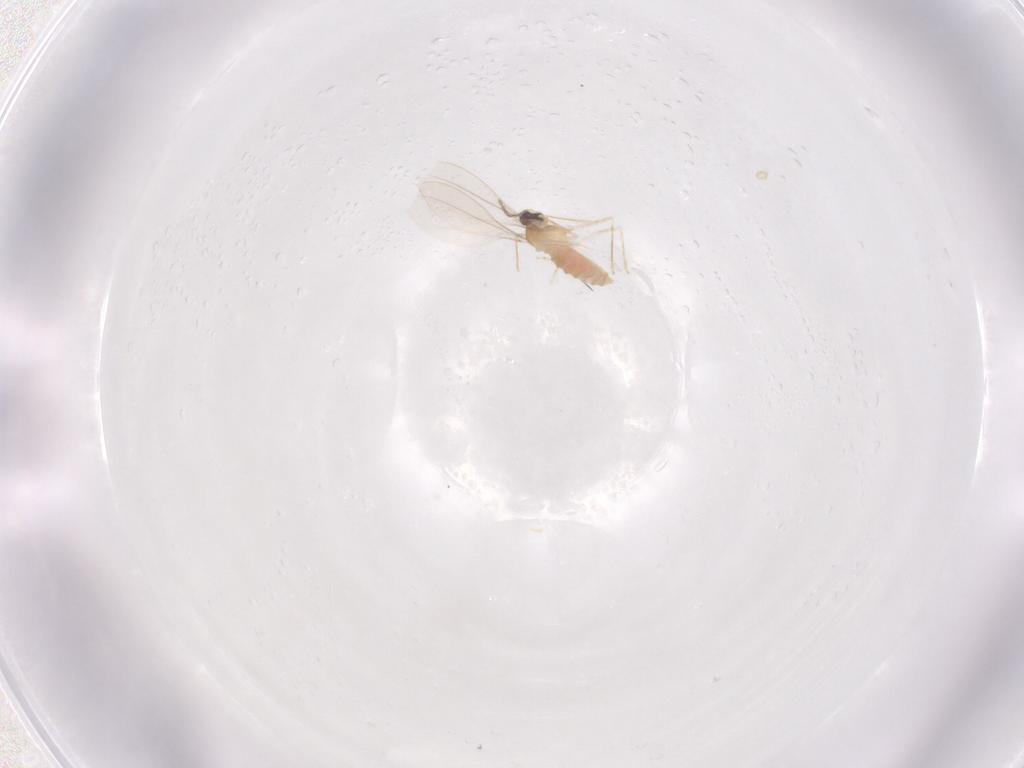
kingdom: Animalia
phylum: Arthropoda
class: Insecta
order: Diptera
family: Cecidomyiidae
